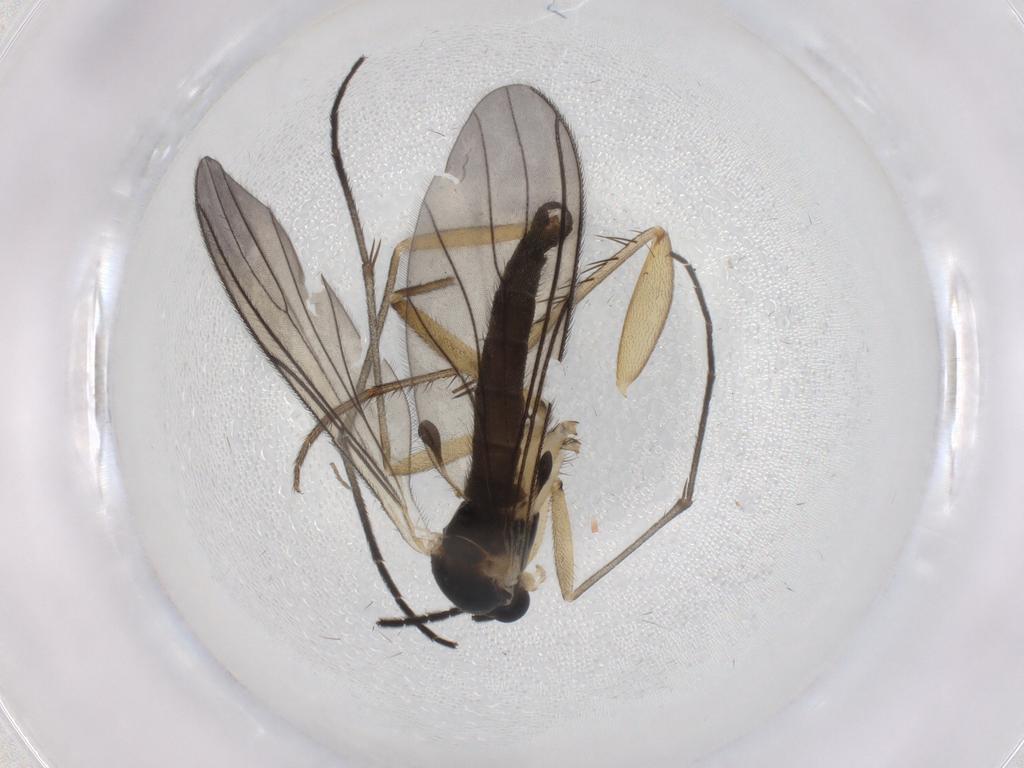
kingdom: Animalia
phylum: Arthropoda
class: Insecta
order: Diptera
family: Sciaridae
